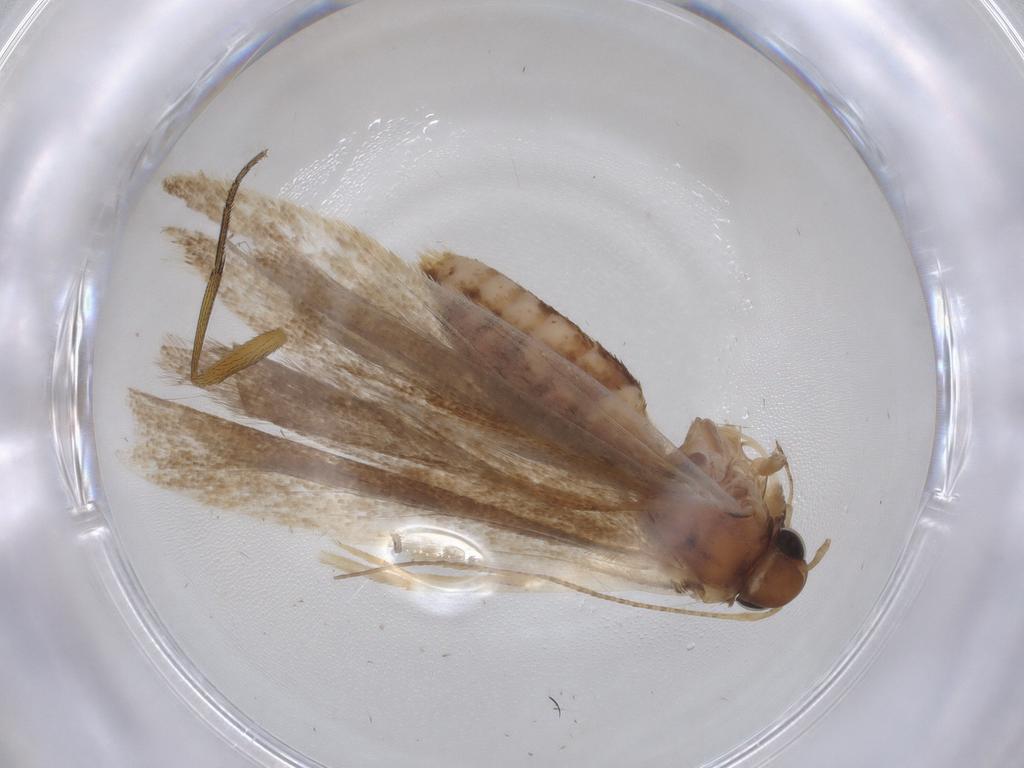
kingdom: Animalia
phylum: Arthropoda
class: Insecta
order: Lepidoptera
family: Gelechiidae
